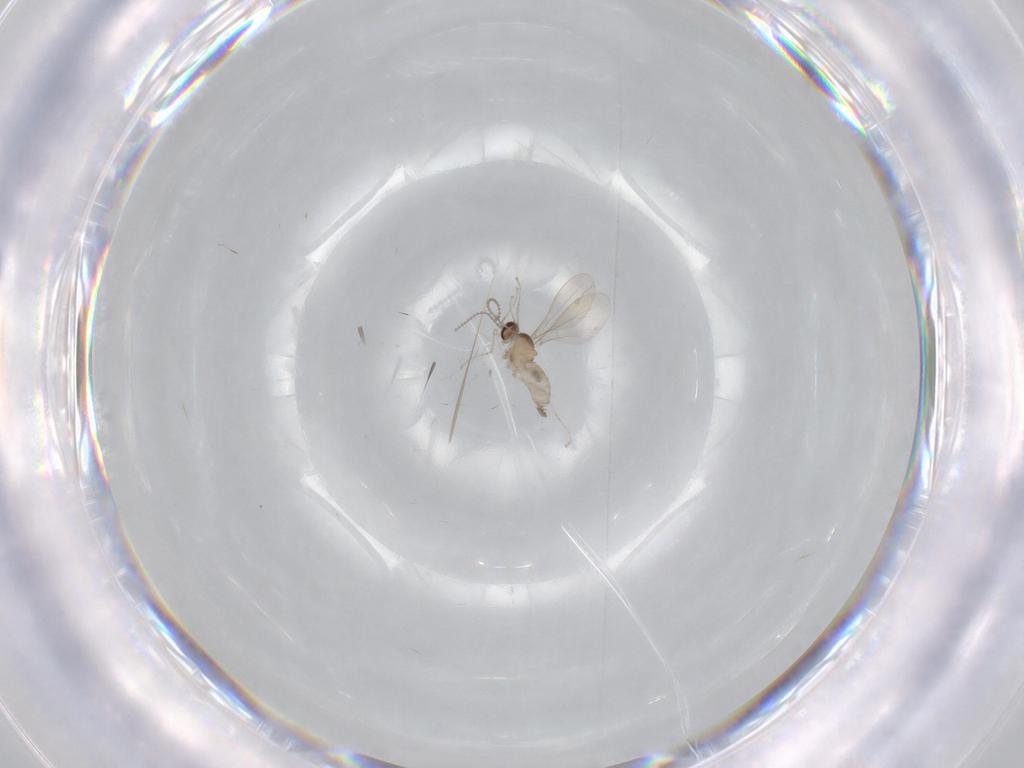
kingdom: Animalia
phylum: Arthropoda
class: Insecta
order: Diptera
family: Cecidomyiidae
